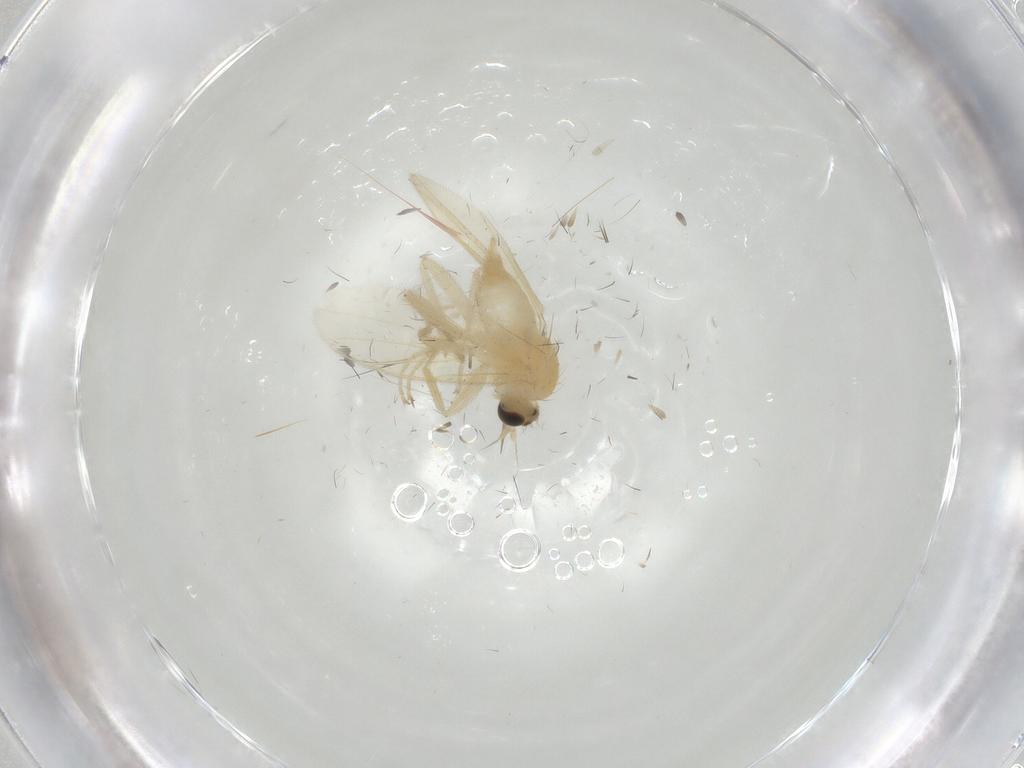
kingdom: Animalia
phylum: Arthropoda
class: Insecta
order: Diptera
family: Hybotidae
